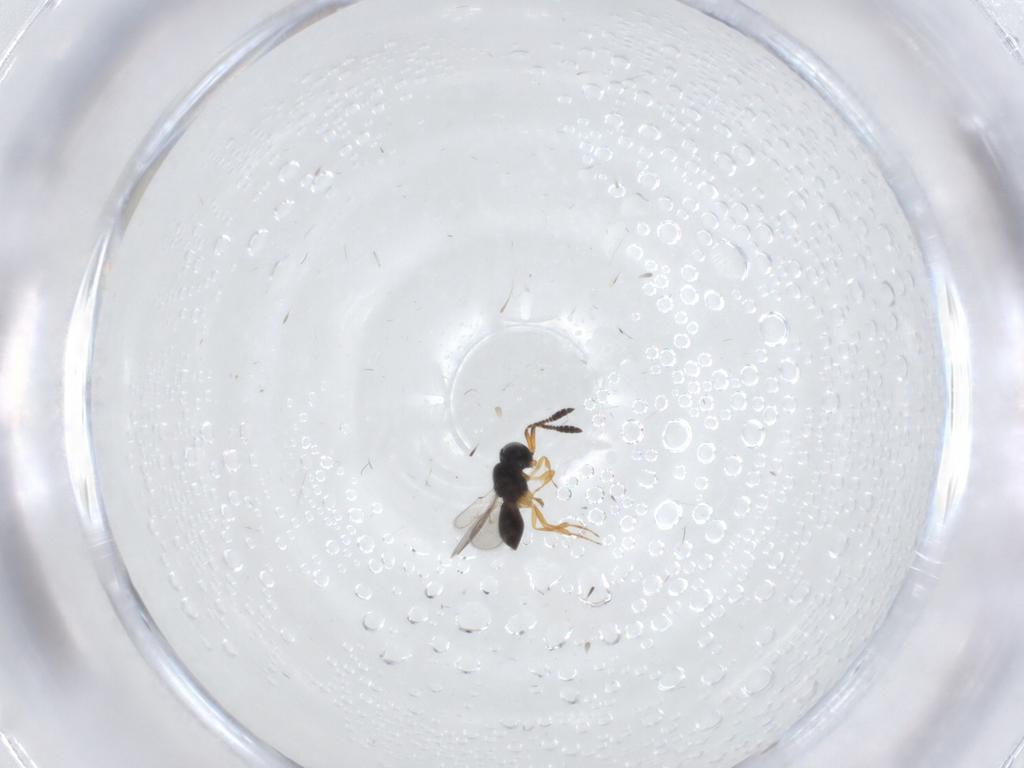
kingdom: Animalia
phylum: Arthropoda
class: Insecta
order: Hymenoptera
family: Scelionidae
